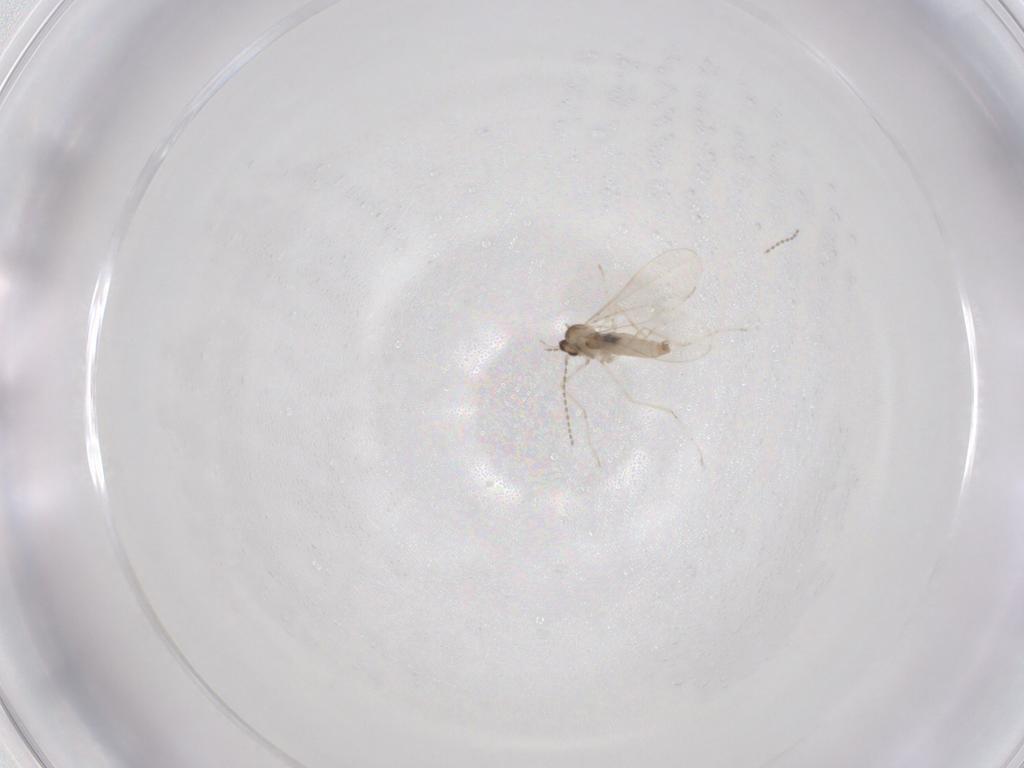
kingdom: Animalia
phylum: Arthropoda
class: Insecta
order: Diptera
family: Cecidomyiidae
